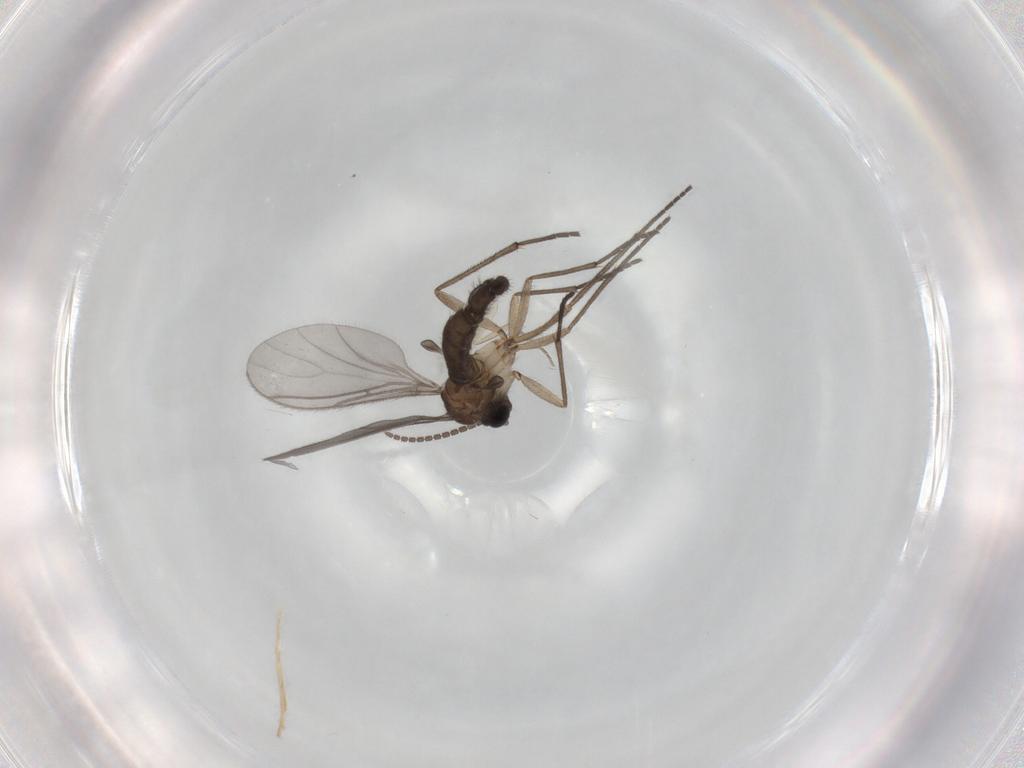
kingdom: Animalia
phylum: Arthropoda
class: Insecta
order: Diptera
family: Sciaridae
